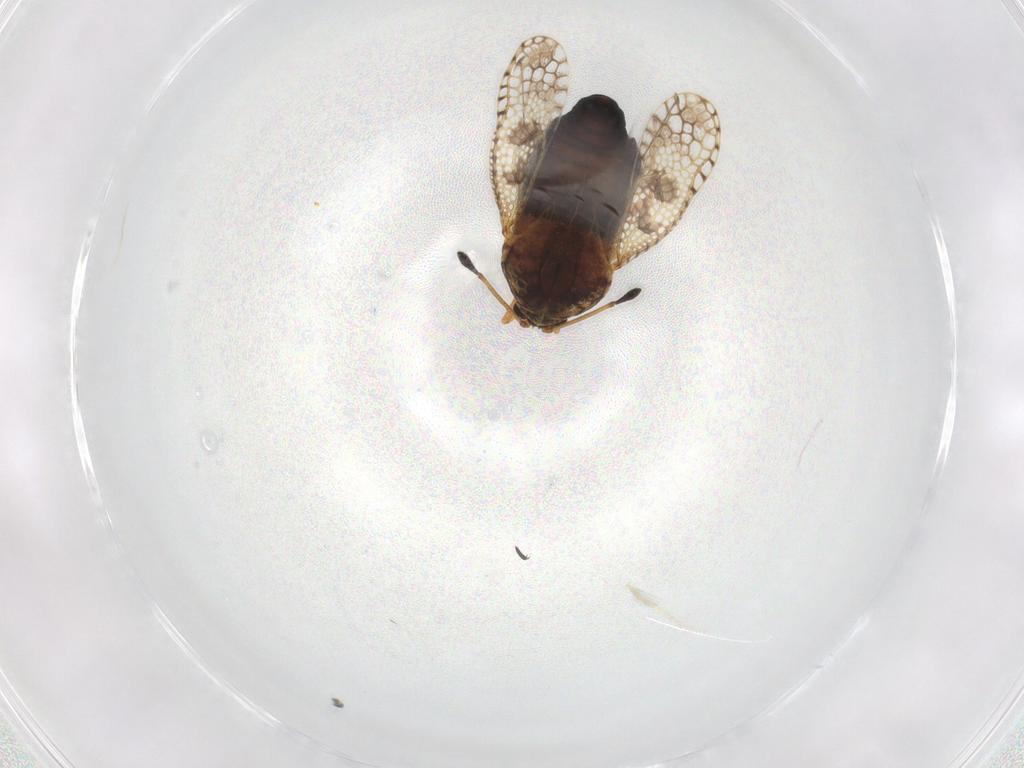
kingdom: Animalia
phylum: Arthropoda
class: Insecta
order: Hemiptera
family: Tingidae
